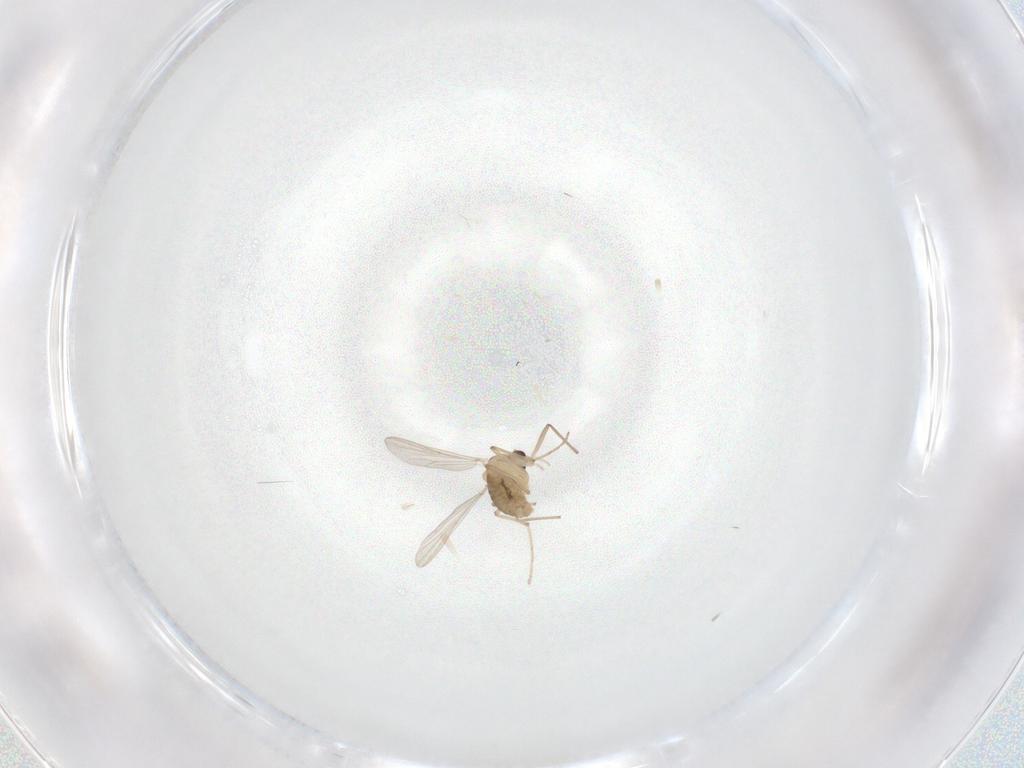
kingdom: Animalia
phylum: Arthropoda
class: Insecta
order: Diptera
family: Chironomidae
